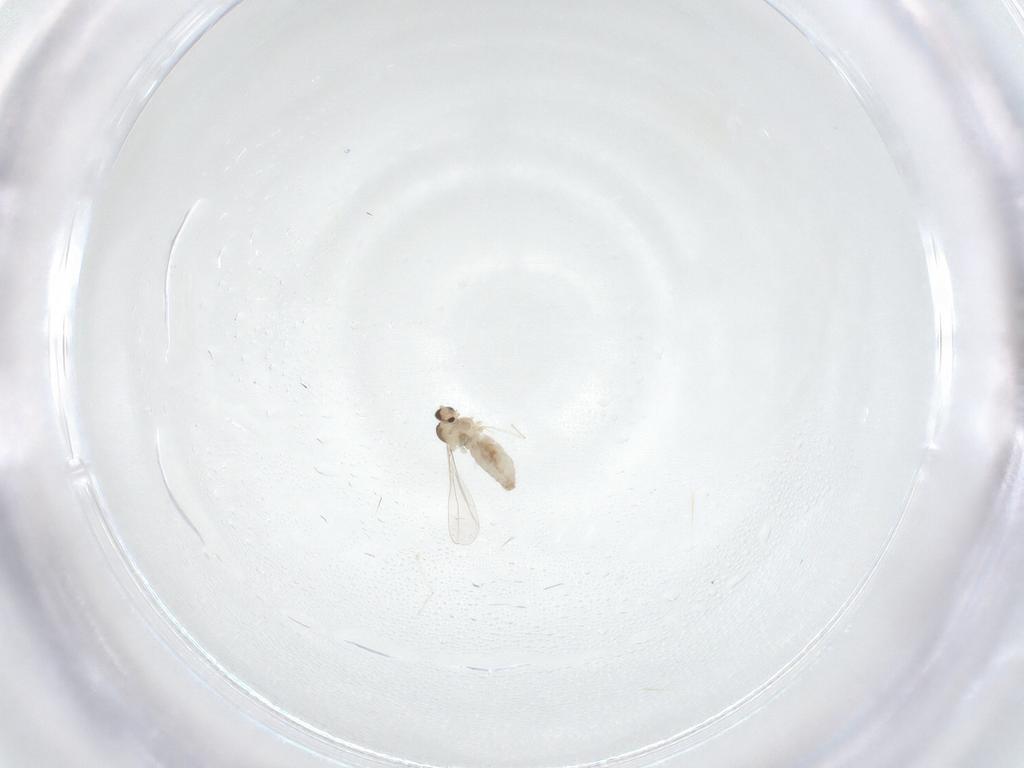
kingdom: Animalia
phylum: Arthropoda
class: Insecta
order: Diptera
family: Cecidomyiidae
